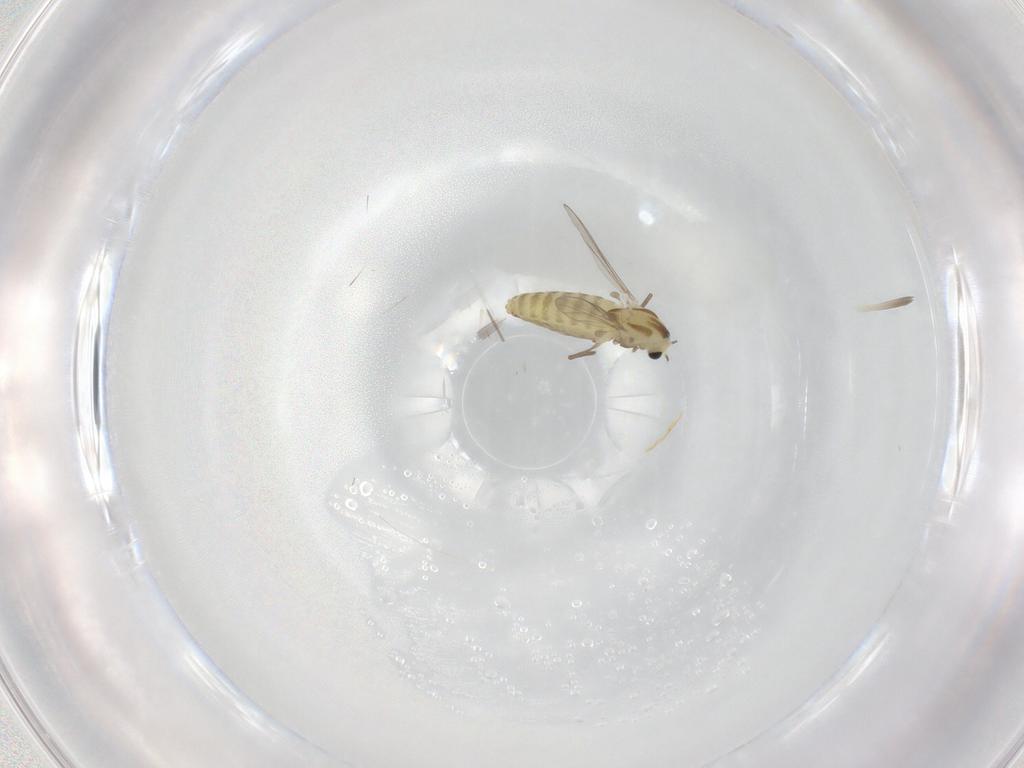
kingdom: Animalia
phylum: Arthropoda
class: Insecta
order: Diptera
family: Chironomidae
